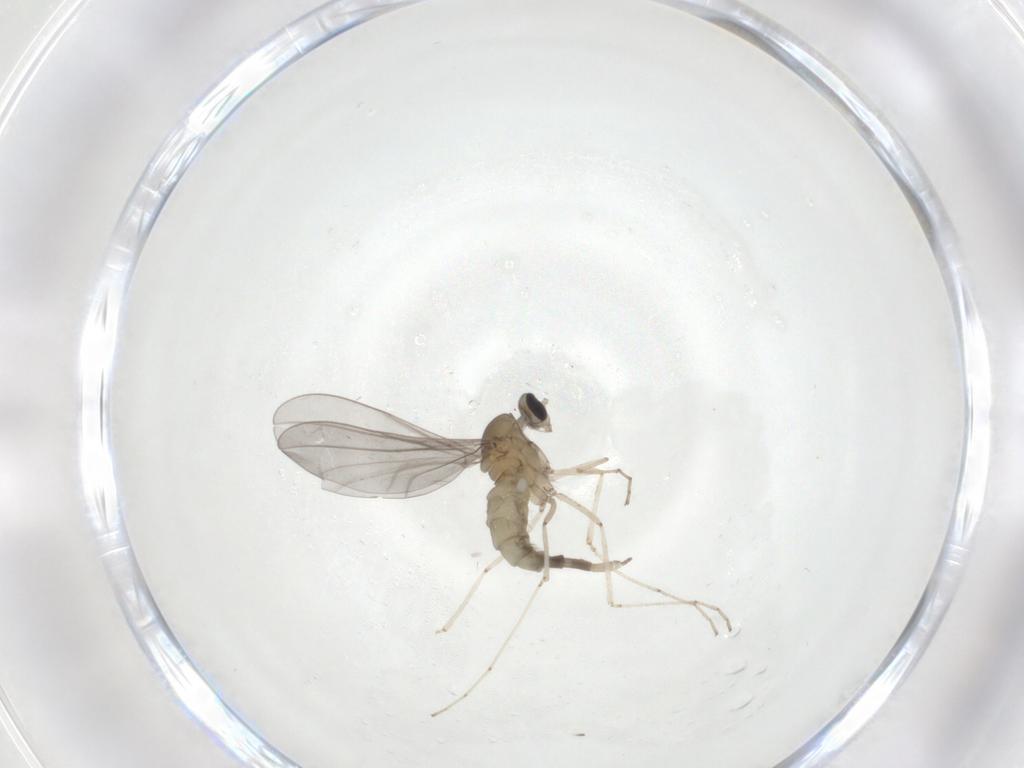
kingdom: Animalia
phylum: Arthropoda
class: Insecta
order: Diptera
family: Cecidomyiidae
